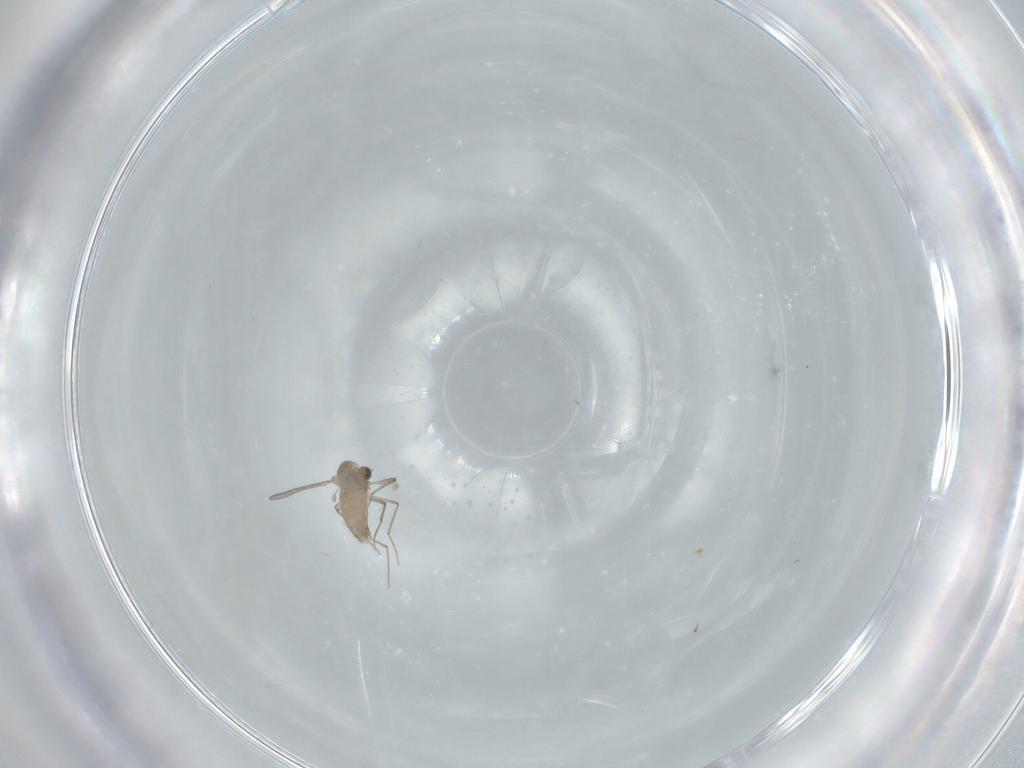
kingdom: Animalia
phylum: Arthropoda
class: Insecta
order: Diptera
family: Chironomidae
